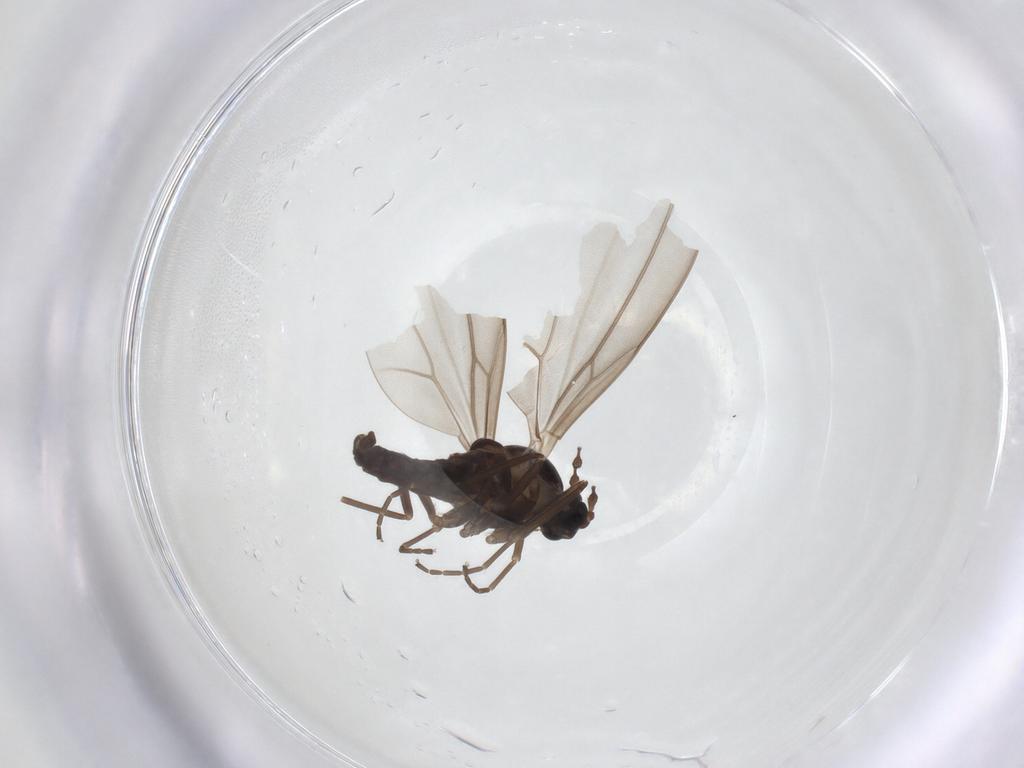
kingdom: Animalia
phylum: Arthropoda
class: Insecta
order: Diptera
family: Cecidomyiidae
